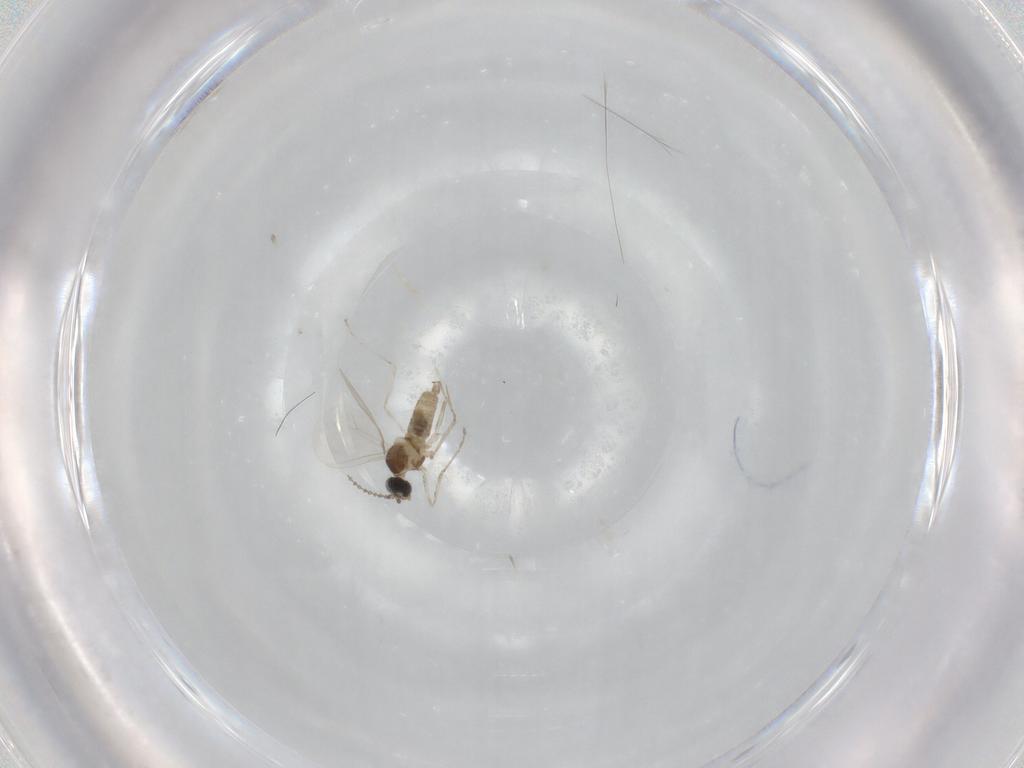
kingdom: Animalia
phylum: Arthropoda
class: Insecta
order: Diptera
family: Cecidomyiidae
